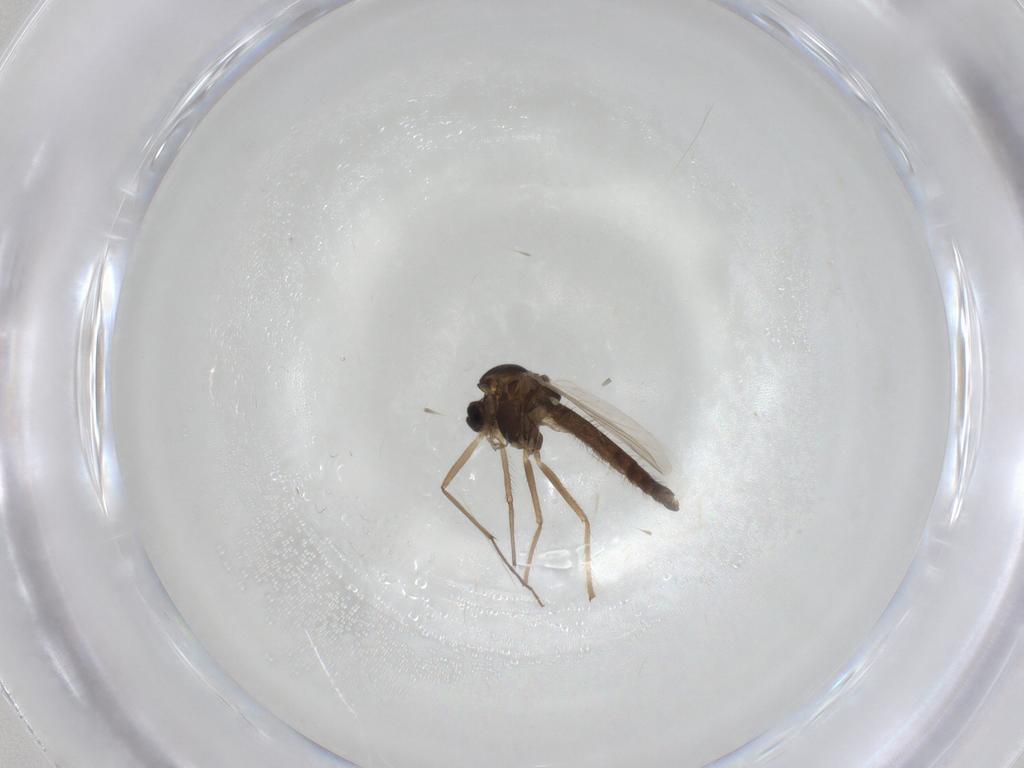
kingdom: Animalia
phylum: Arthropoda
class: Insecta
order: Diptera
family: Chironomidae
